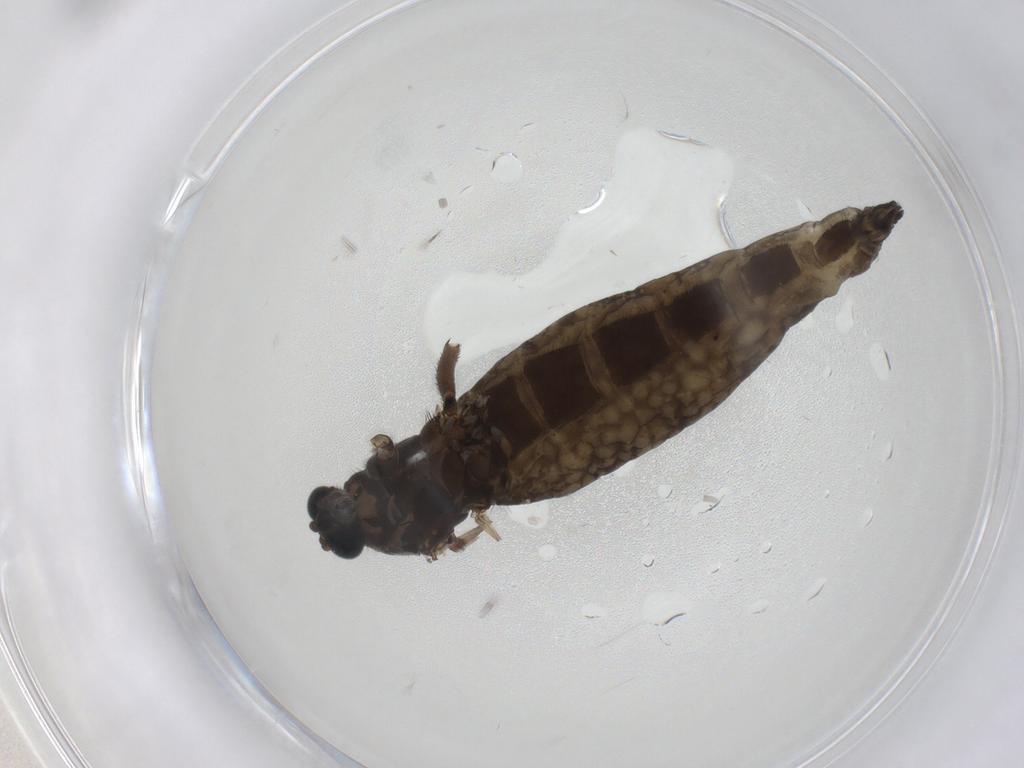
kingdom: Animalia
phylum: Arthropoda
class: Insecta
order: Diptera
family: Sciaridae
